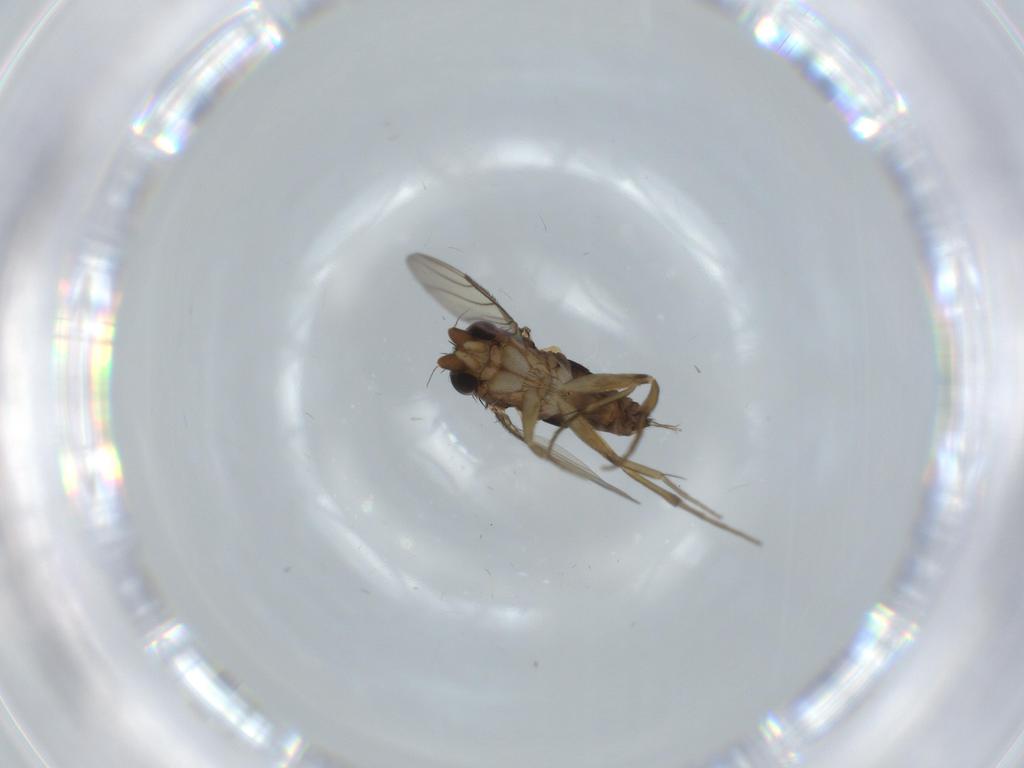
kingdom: Animalia
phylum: Arthropoda
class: Insecta
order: Diptera
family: Phoridae
